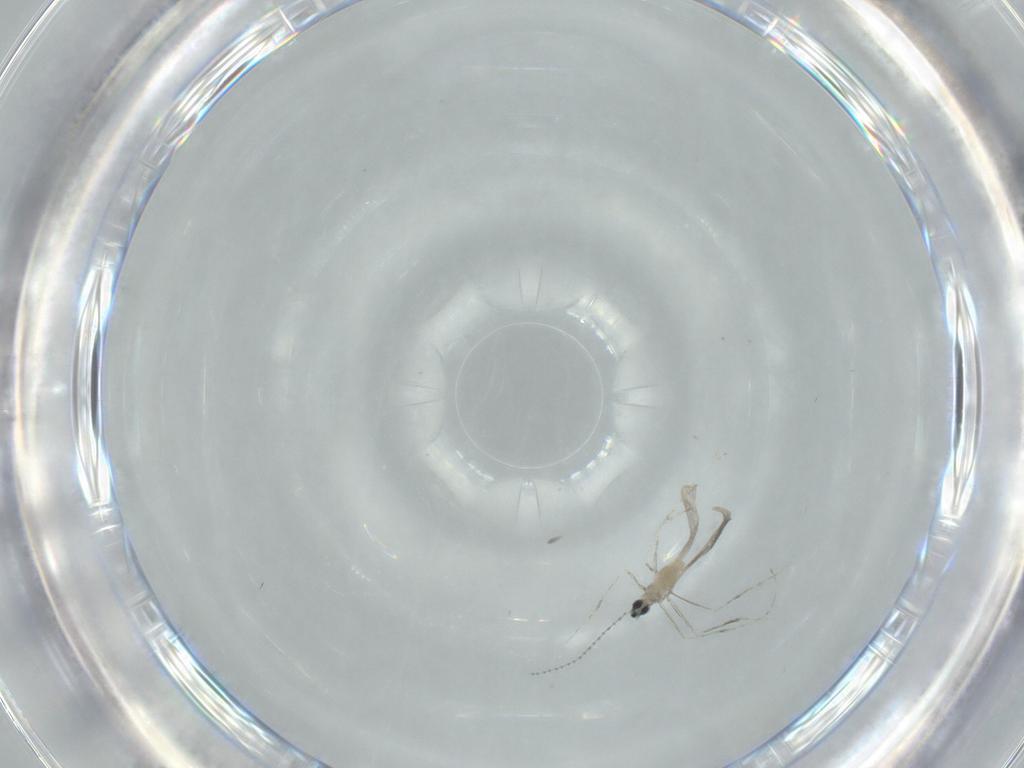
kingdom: Animalia
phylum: Arthropoda
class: Insecta
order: Diptera
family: Cecidomyiidae
